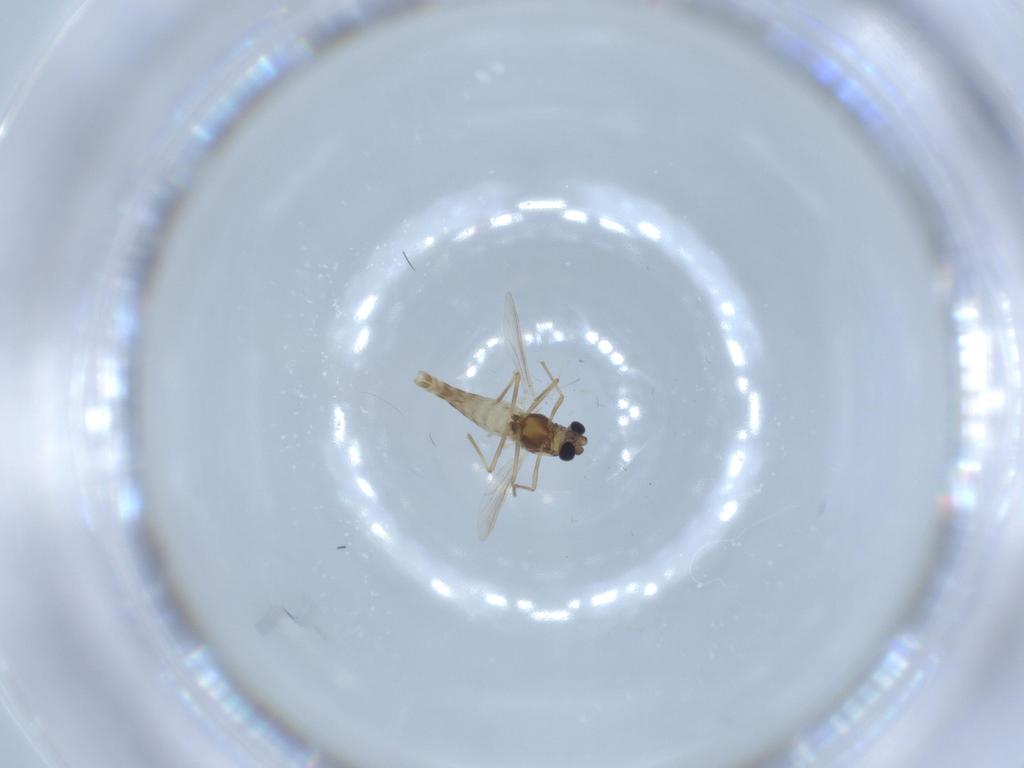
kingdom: Animalia
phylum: Arthropoda
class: Insecta
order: Diptera
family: Chironomidae
